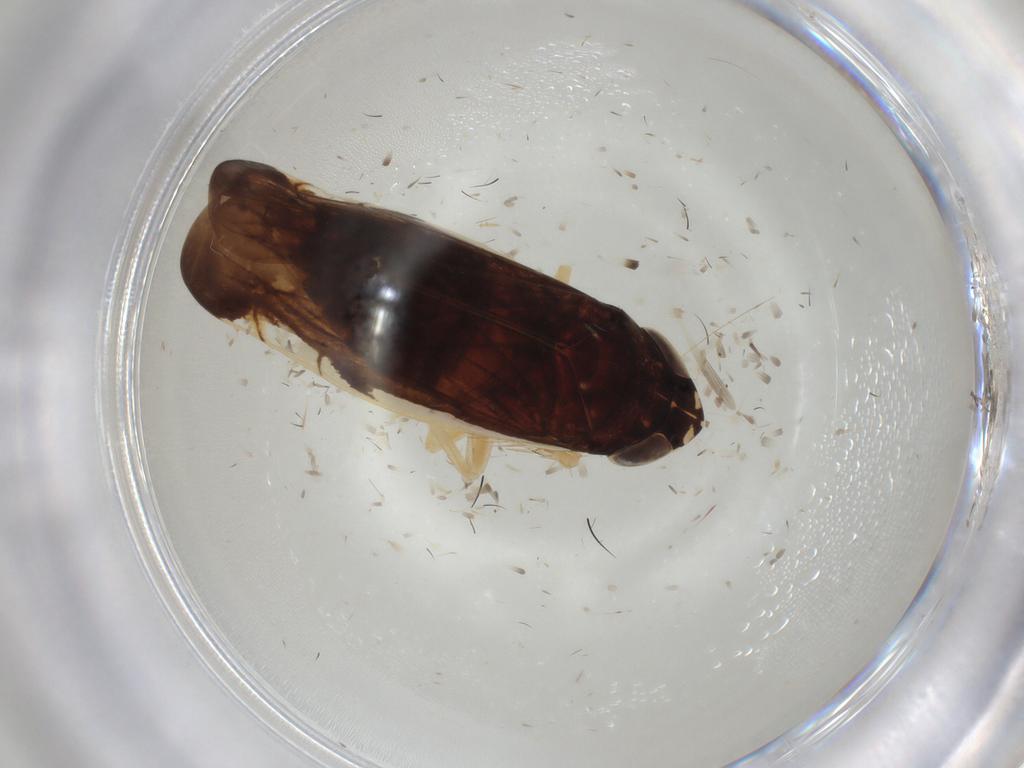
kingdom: Animalia
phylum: Arthropoda
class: Insecta
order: Hemiptera
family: Cicadellidae
